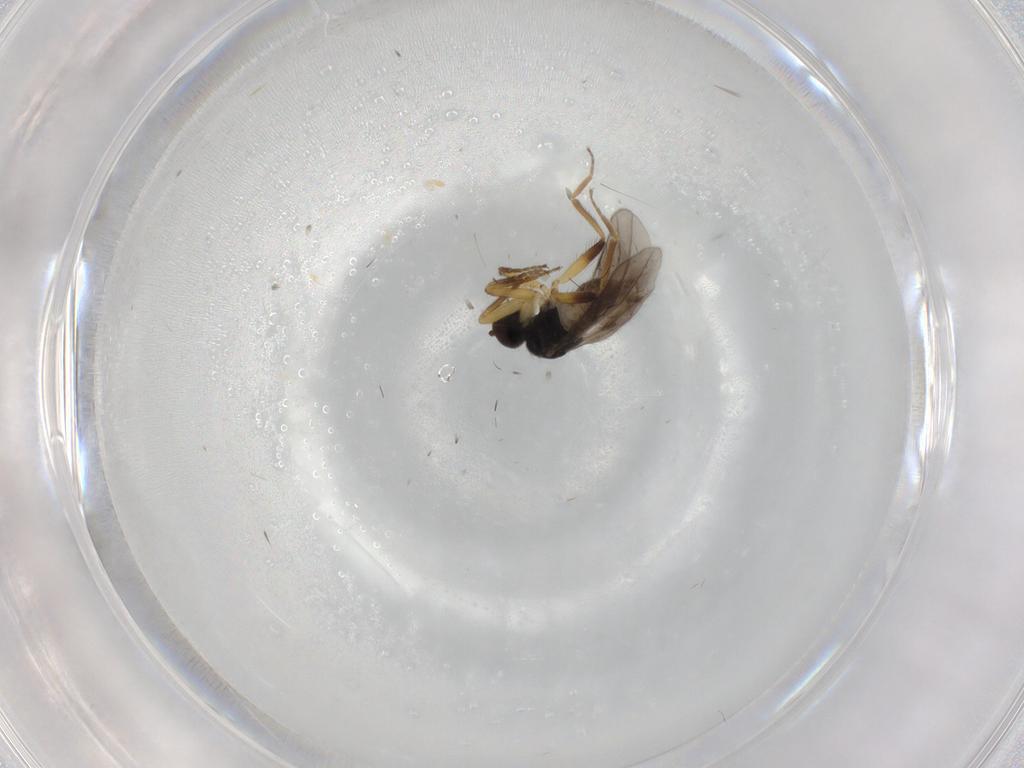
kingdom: Animalia
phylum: Arthropoda
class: Insecta
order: Diptera
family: Hybotidae
